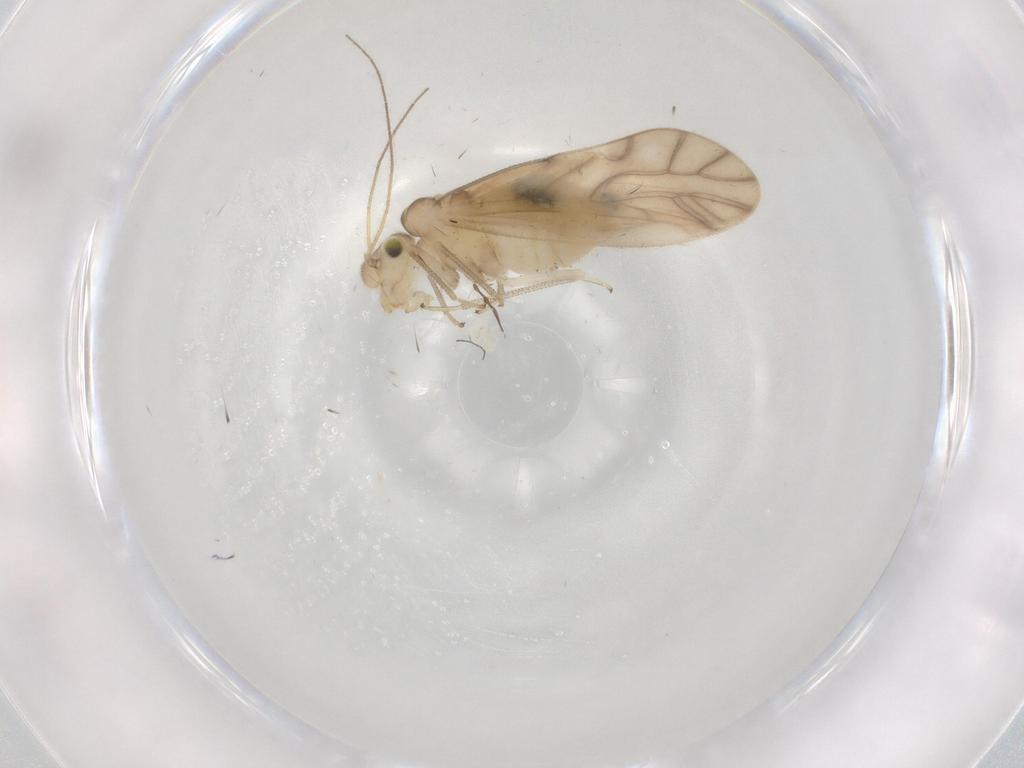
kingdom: Animalia
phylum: Arthropoda
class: Insecta
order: Psocodea
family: Caeciliusidae
